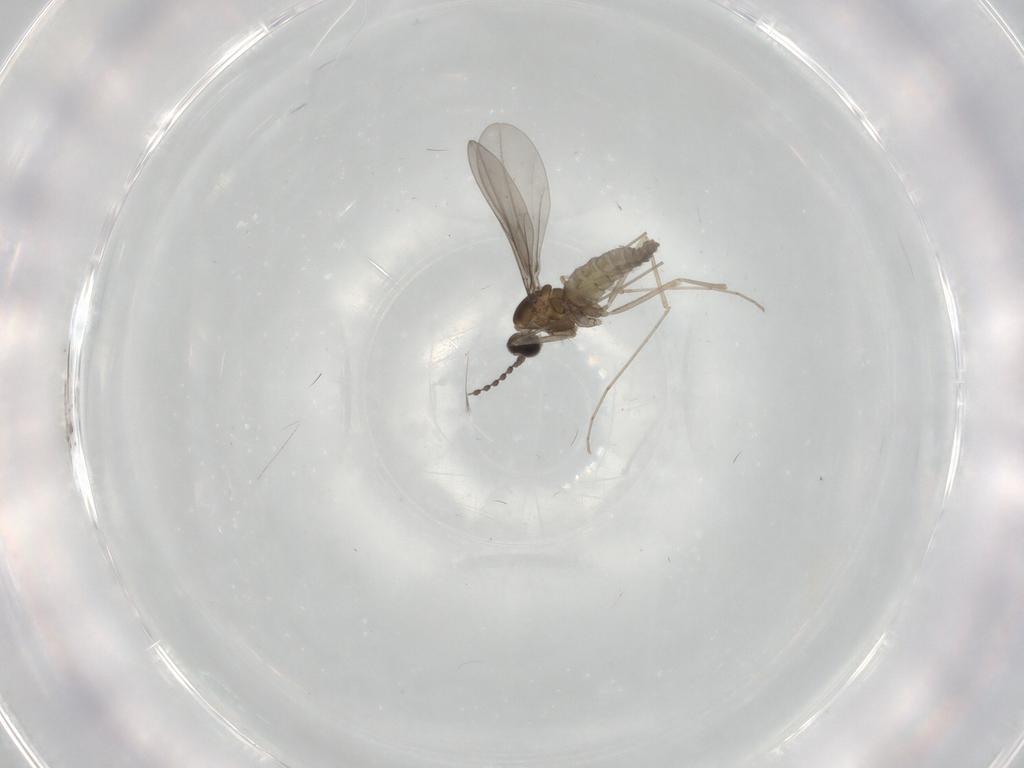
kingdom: Animalia
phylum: Arthropoda
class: Insecta
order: Diptera
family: Cecidomyiidae
